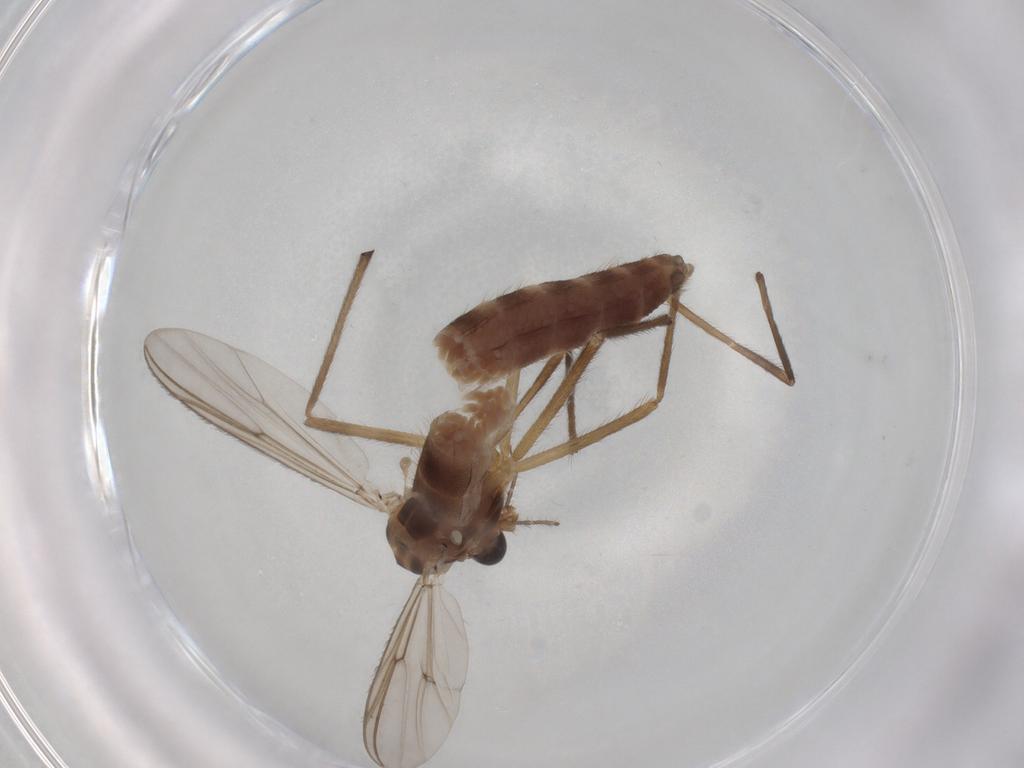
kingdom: Animalia
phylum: Arthropoda
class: Insecta
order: Diptera
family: Chironomidae
